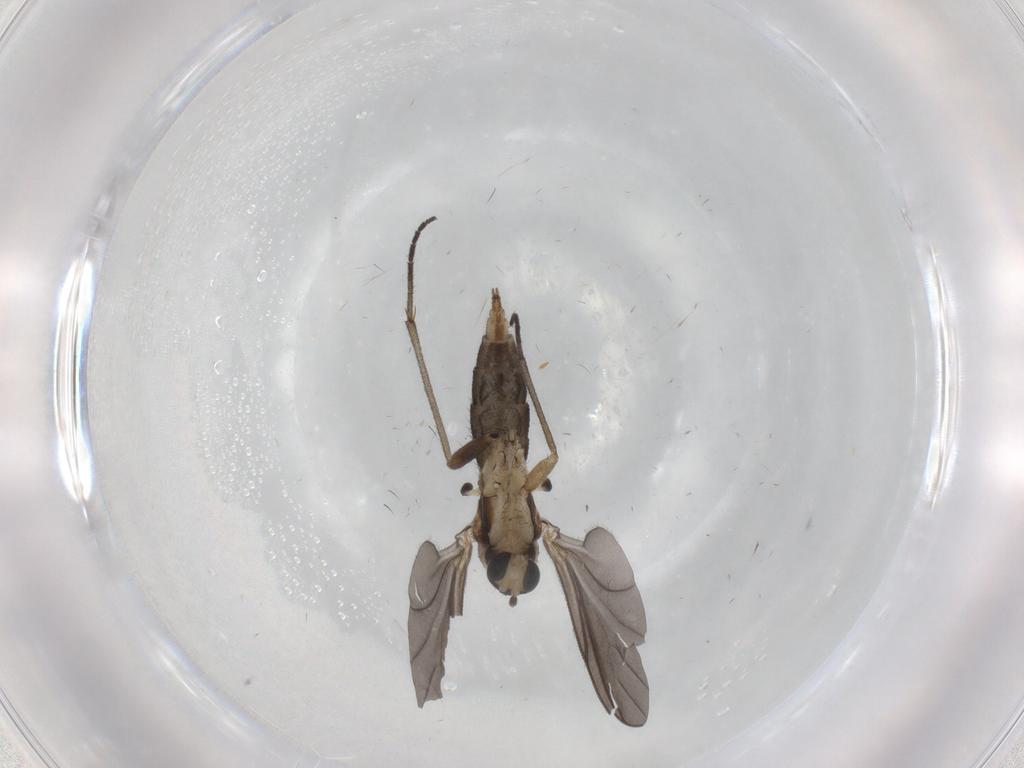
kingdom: Animalia
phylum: Arthropoda
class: Insecta
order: Diptera
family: Sciaridae
